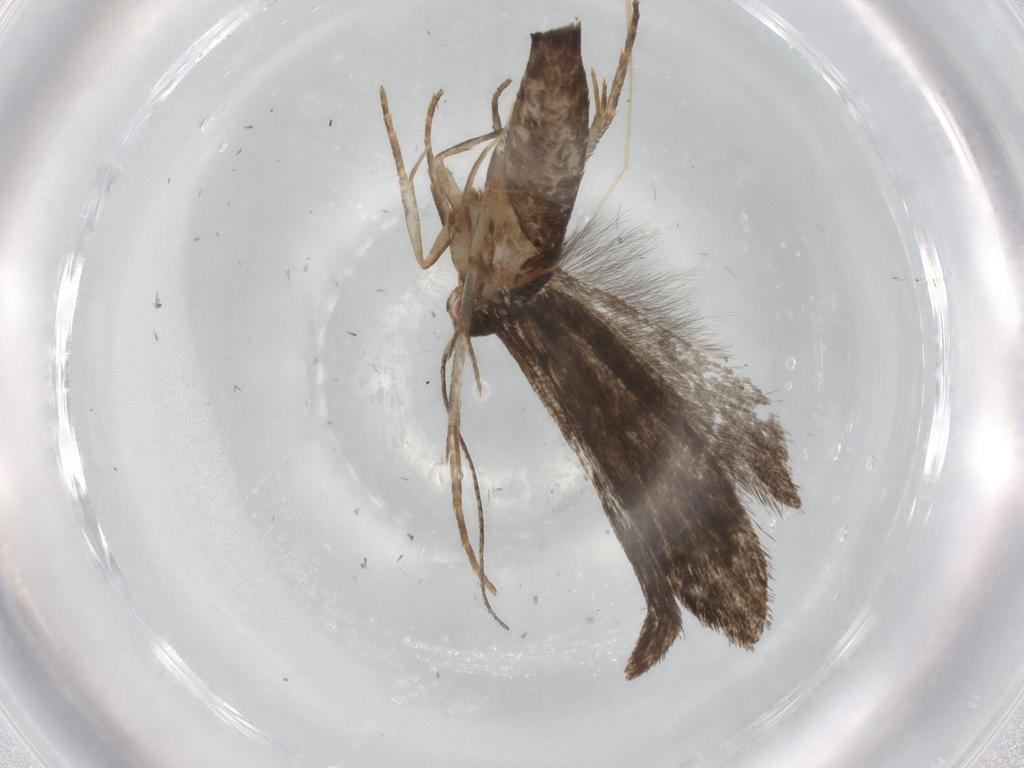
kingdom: Animalia
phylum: Arthropoda
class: Insecta
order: Lepidoptera
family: Gelechiidae
